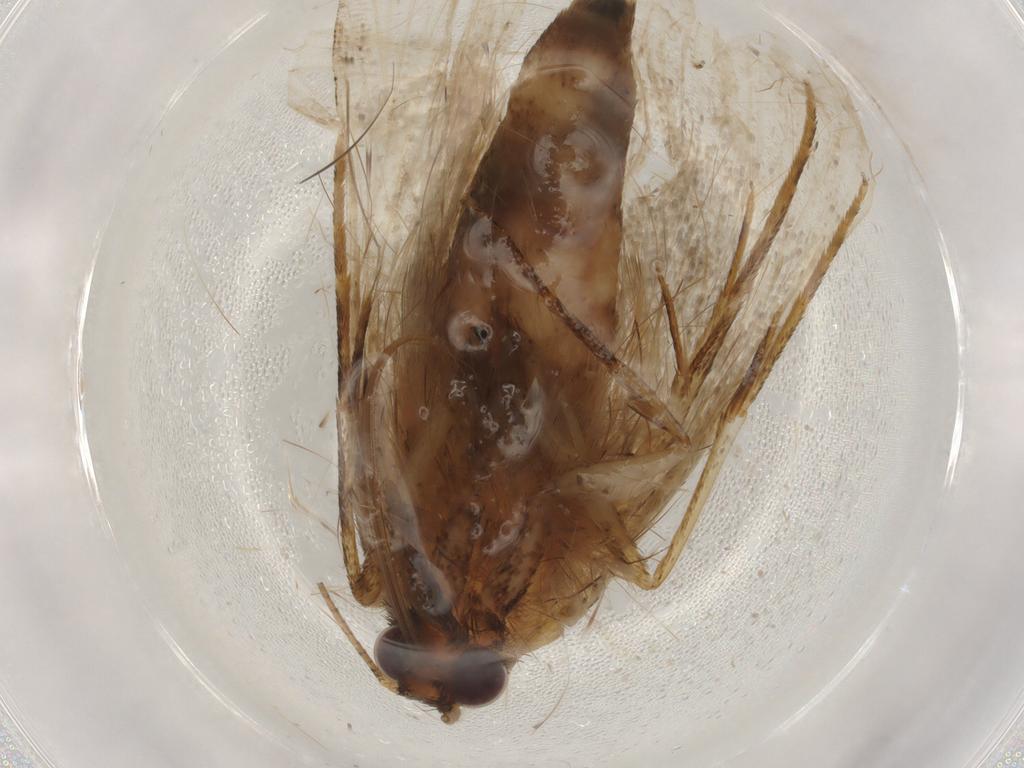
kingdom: Animalia
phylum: Arthropoda
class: Insecta
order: Lepidoptera
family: Erebidae
